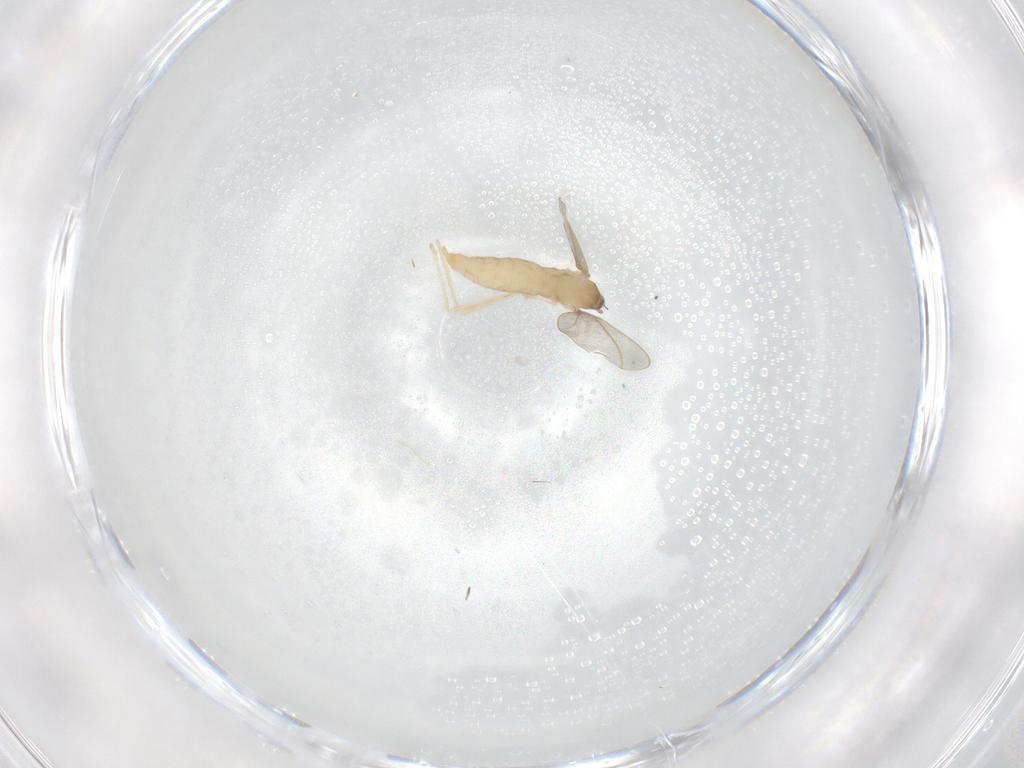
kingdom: Animalia
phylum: Arthropoda
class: Insecta
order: Diptera
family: Cecidomyiidae
